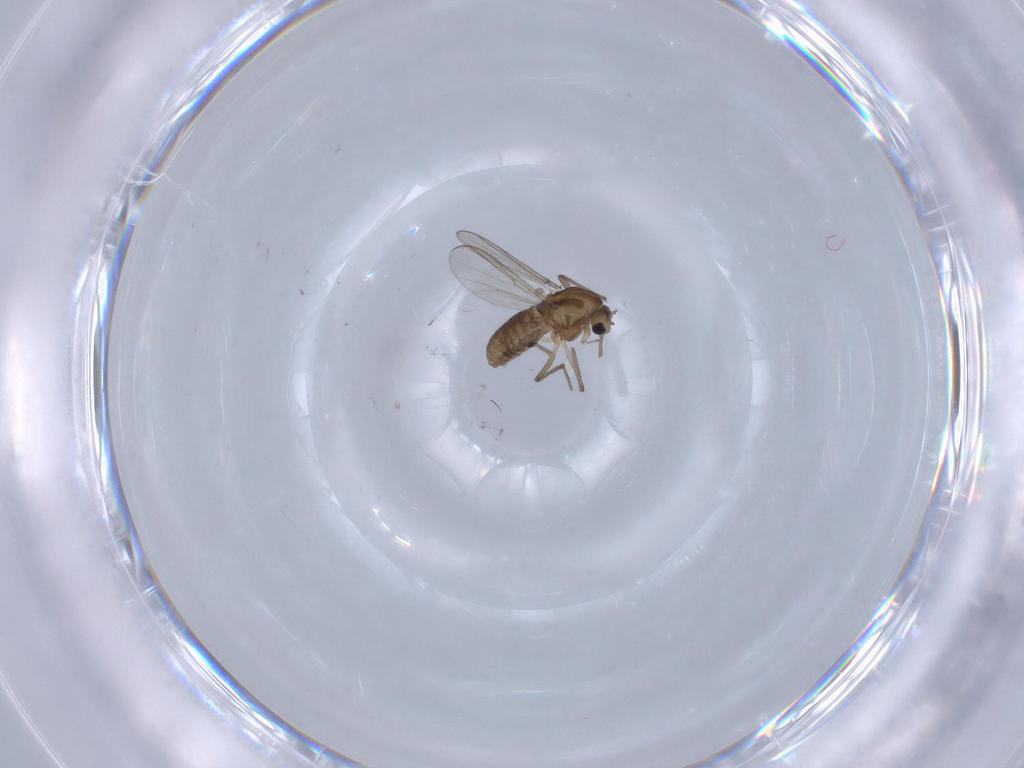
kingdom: Animalia
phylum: Arthropoda
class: Insecta
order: Diptera
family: Chironomidae
